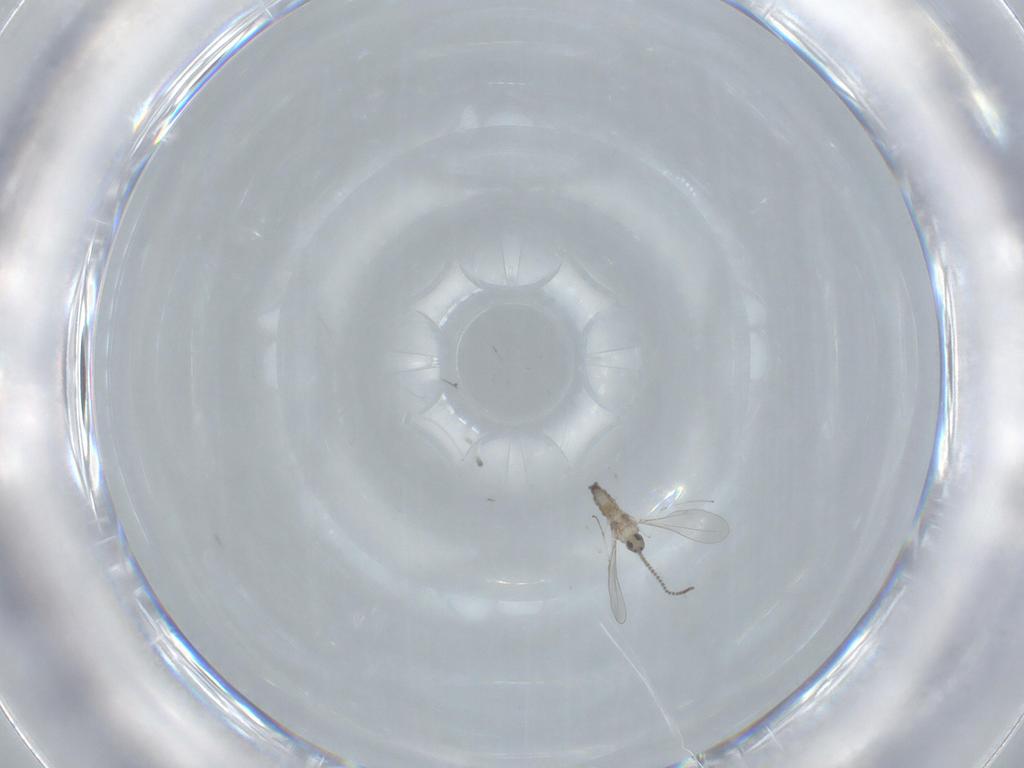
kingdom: Animalia
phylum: Arthropoda
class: Insecta
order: Diptera
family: Cecidomyiidae
